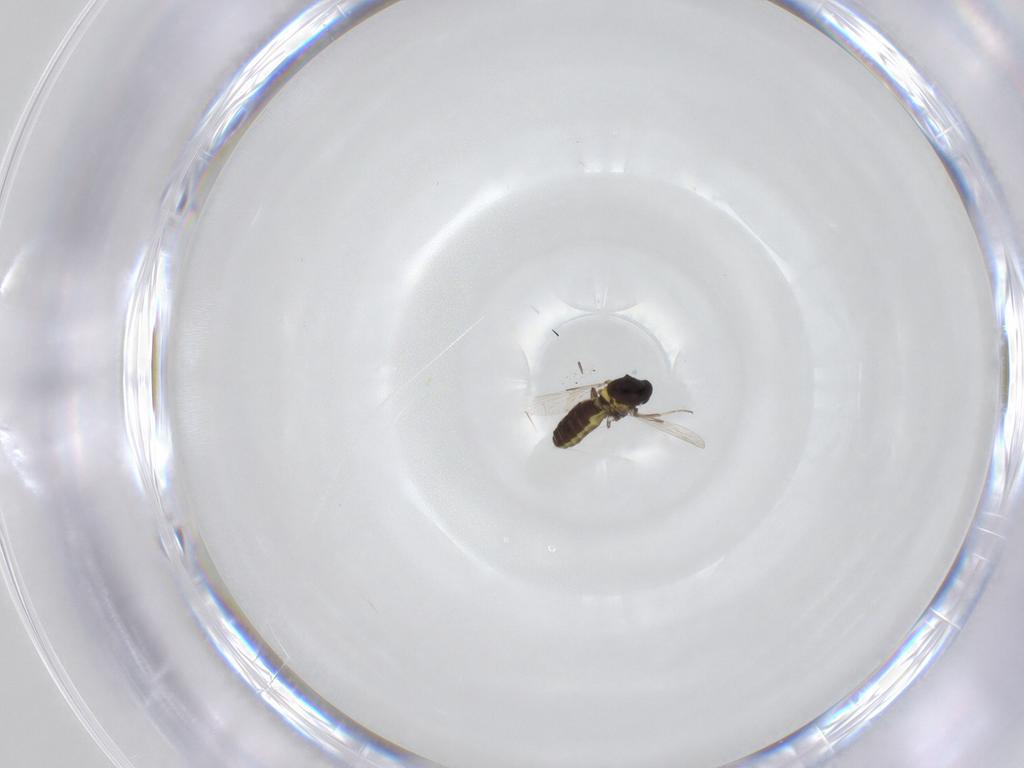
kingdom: Animalia
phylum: Arthropoda
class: Insecta
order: Diptera
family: Ceratopogonidae
